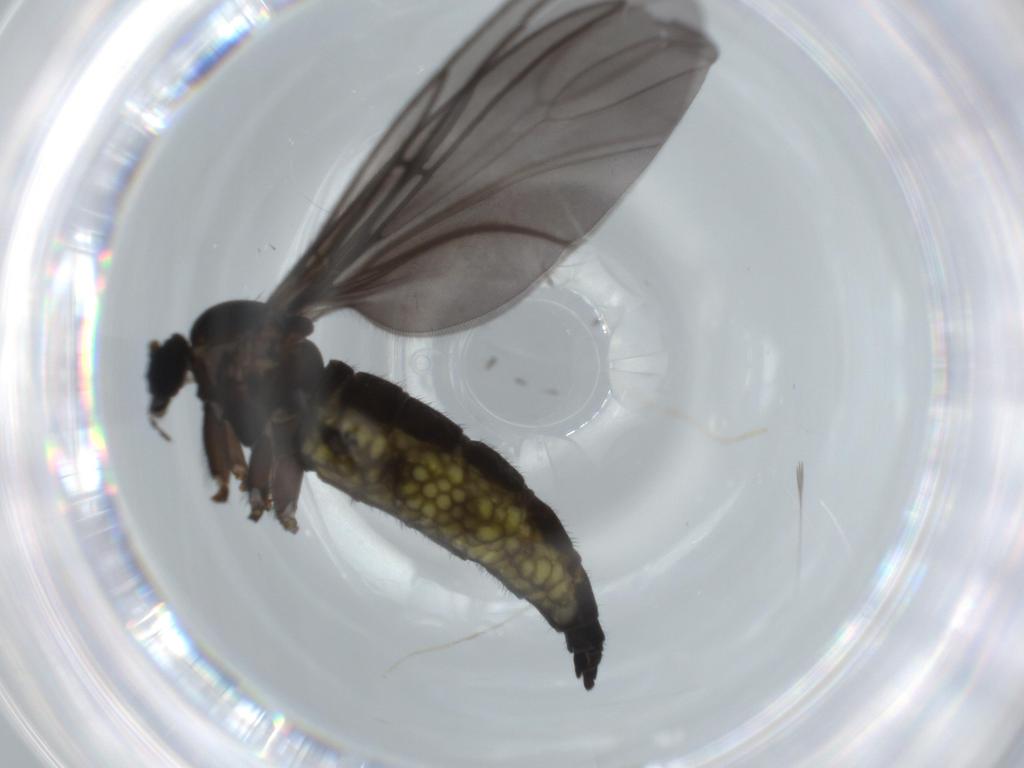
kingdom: Animalia
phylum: Arthropoda
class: Insecta
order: Diptera
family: Sciaridae
